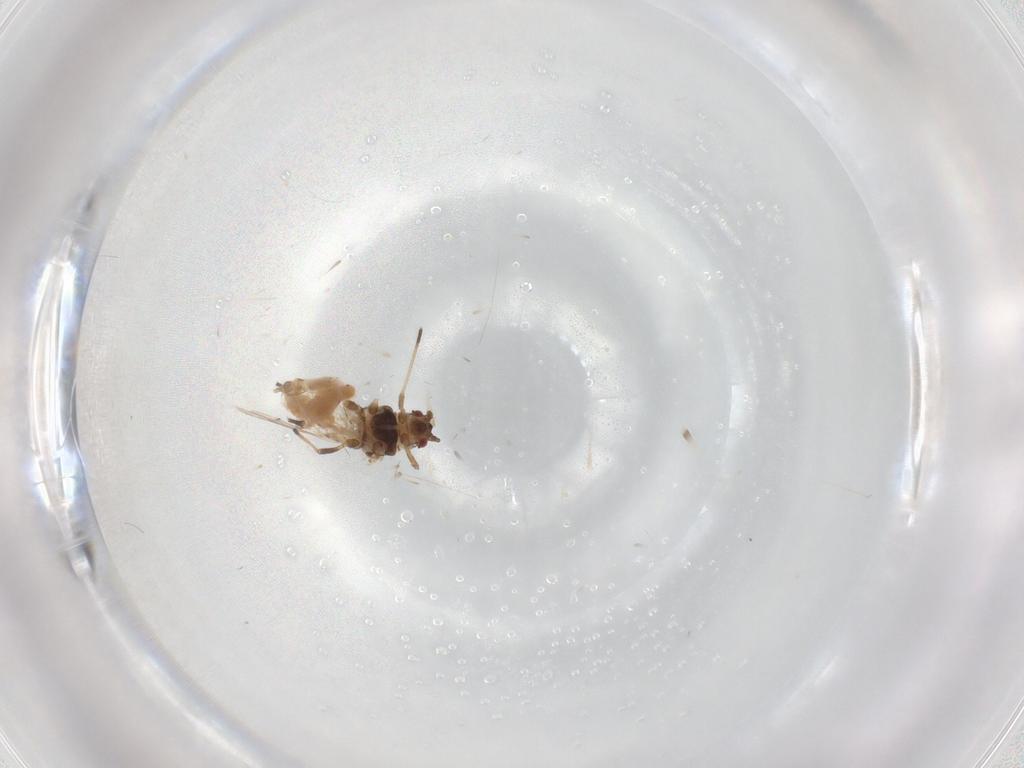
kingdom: Animalia
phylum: Arthropoda
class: Insecta
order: Hemiptera
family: Aphididae
